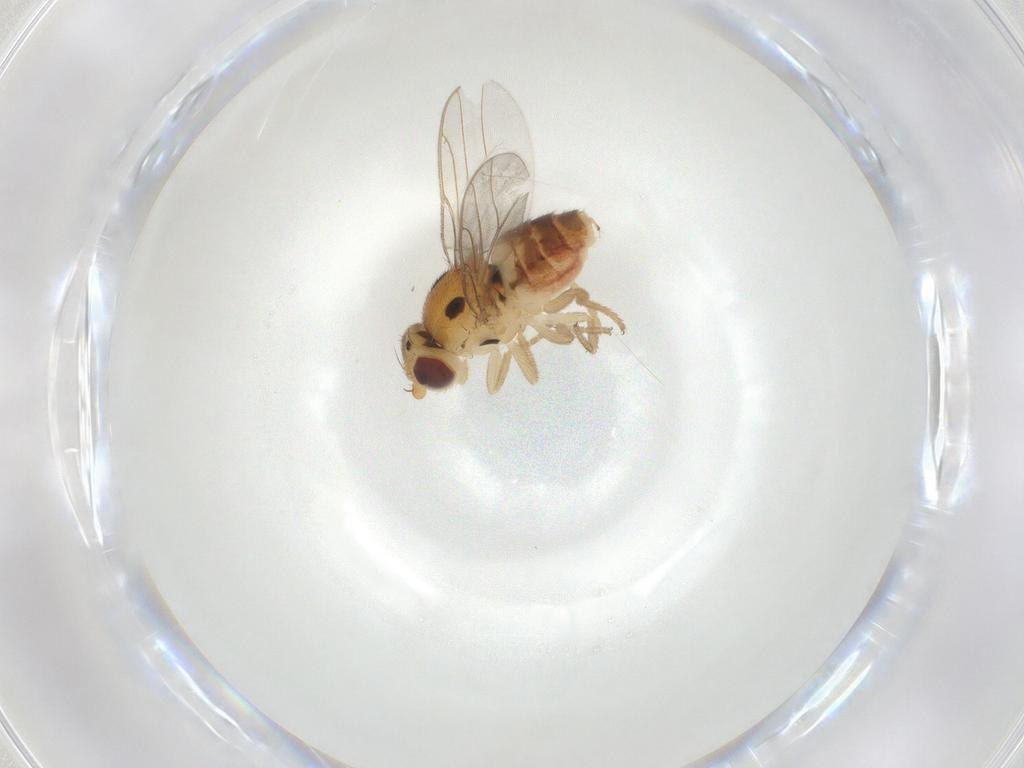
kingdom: Animalia
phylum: Arthropoda
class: Insecta
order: Diptera
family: Chloropidae
